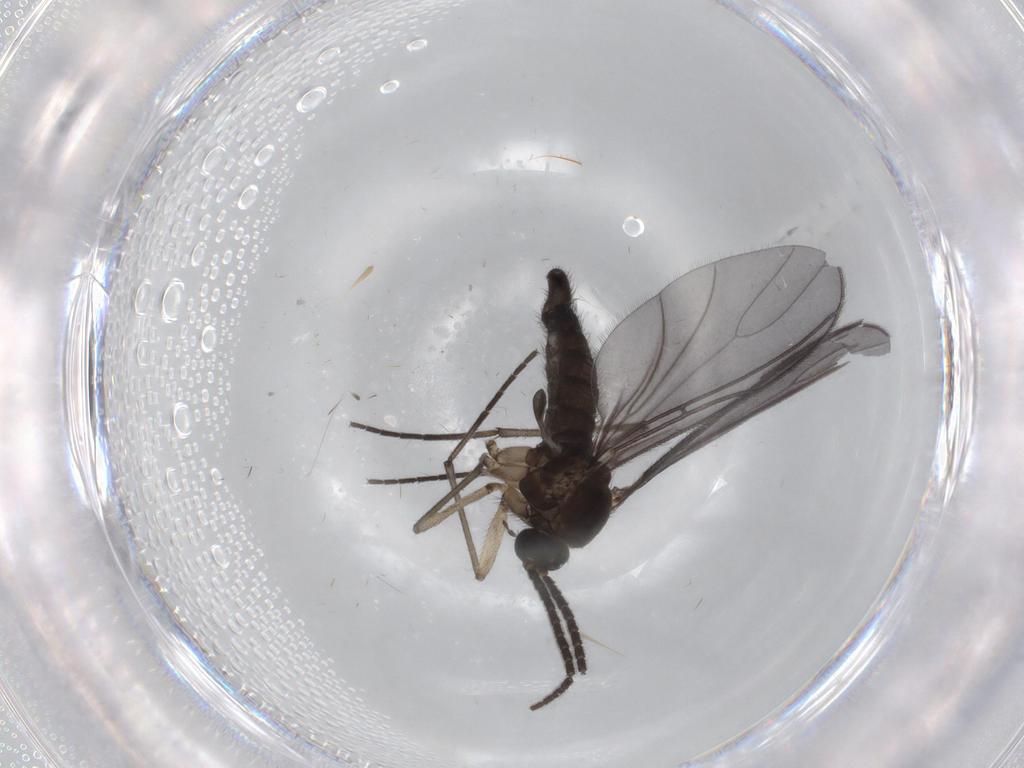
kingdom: Animalia
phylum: Arthropoda
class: Insecta
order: Diptera
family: Sciaridae
